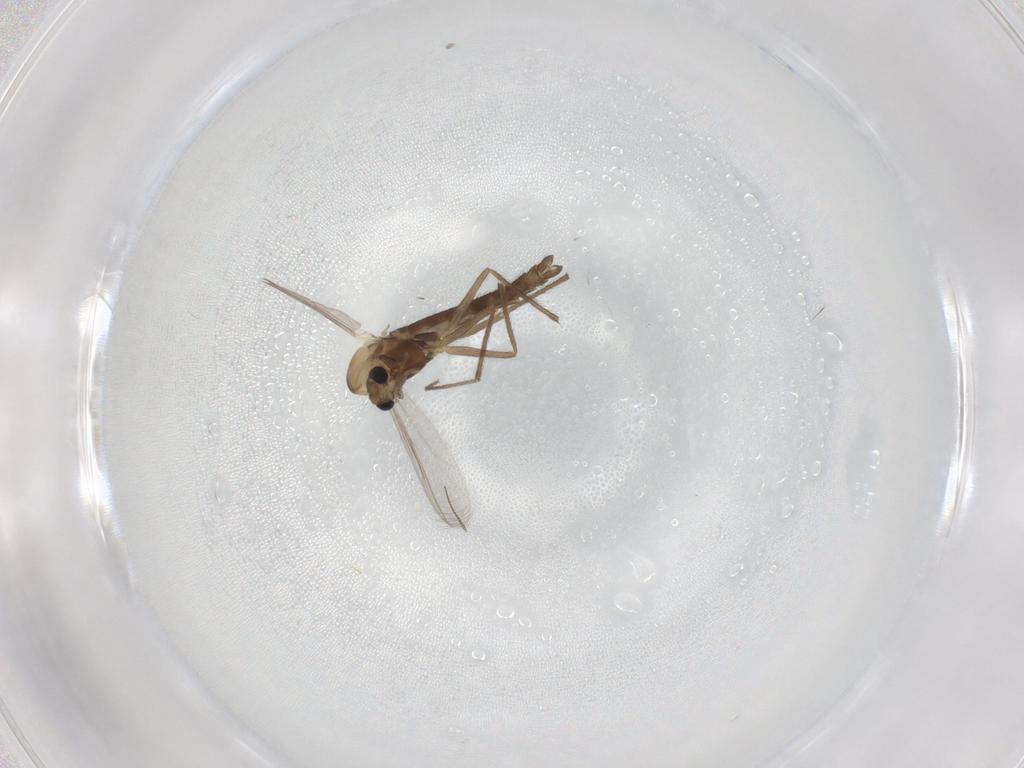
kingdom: Animalia
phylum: Arthropoda
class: Insecta
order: Diptera
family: Chironomidae
